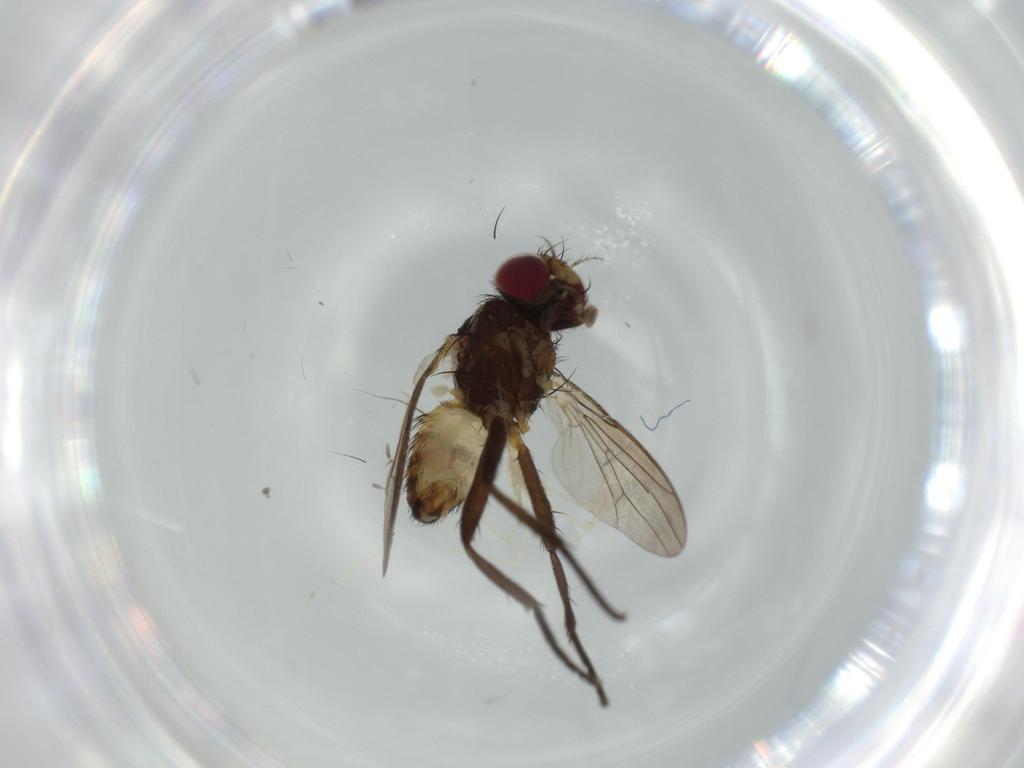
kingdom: Animalia
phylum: Arthropoda
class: Insecta
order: Diptera
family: Anthomyiidae
